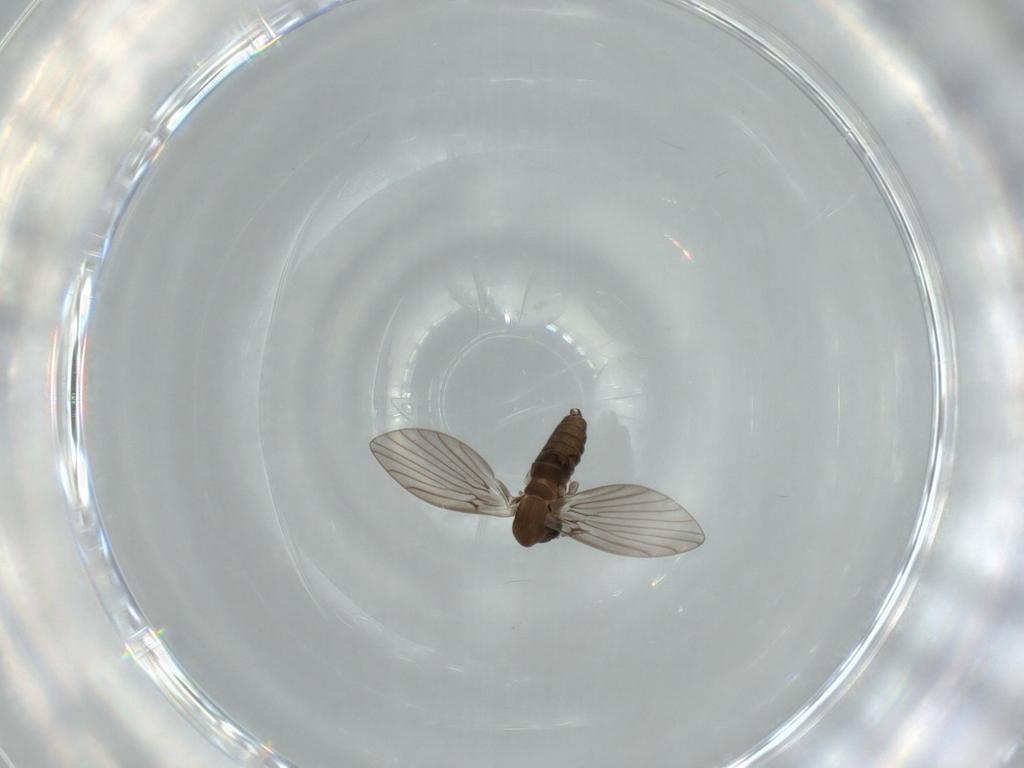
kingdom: Animalia
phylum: Arthropoda
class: Insecta
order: Diptera
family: Psychodidae
